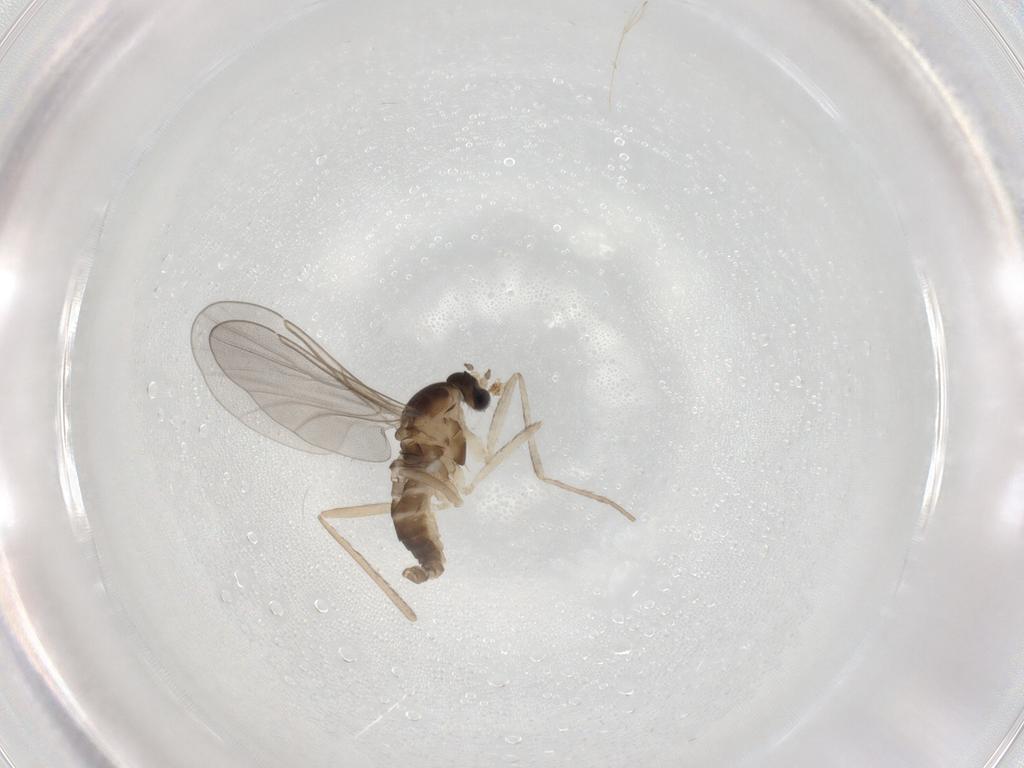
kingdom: Animalia
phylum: Arthropoda
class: Insecta
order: Diptera
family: Cecidomyiidae
